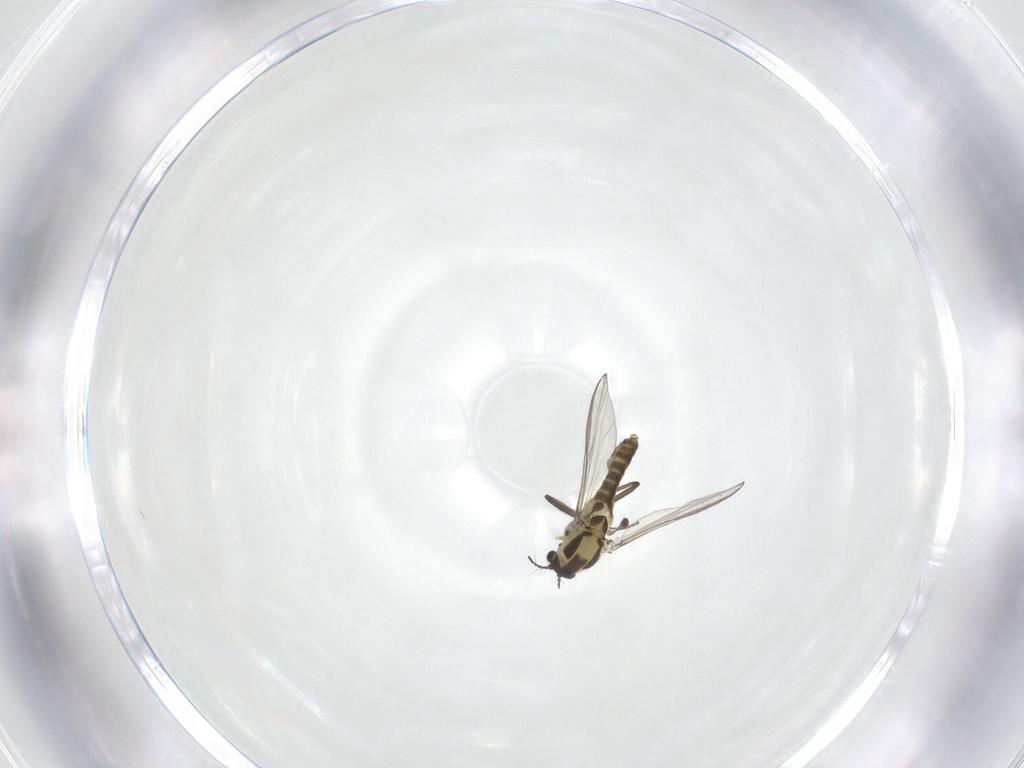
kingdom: Animalia
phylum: Arthropoda
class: Insecta
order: Diptera
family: Chironomidae
